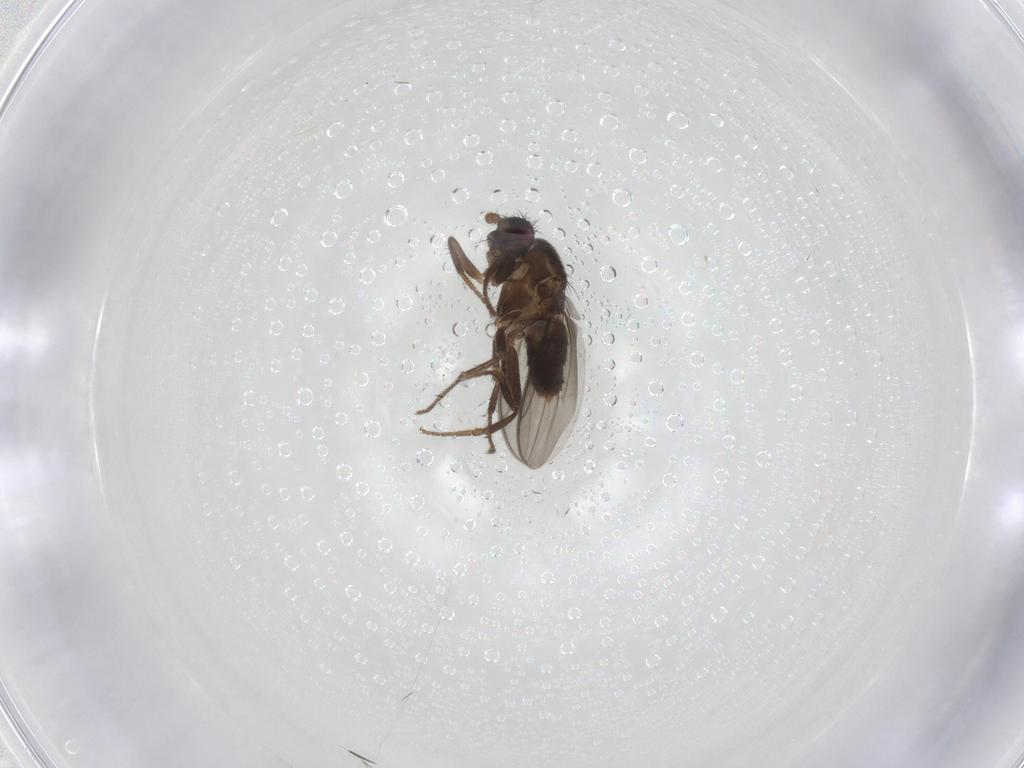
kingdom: Animalia
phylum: Arthropoda
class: Insecta
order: Diptera
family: Sphaeroceridae
